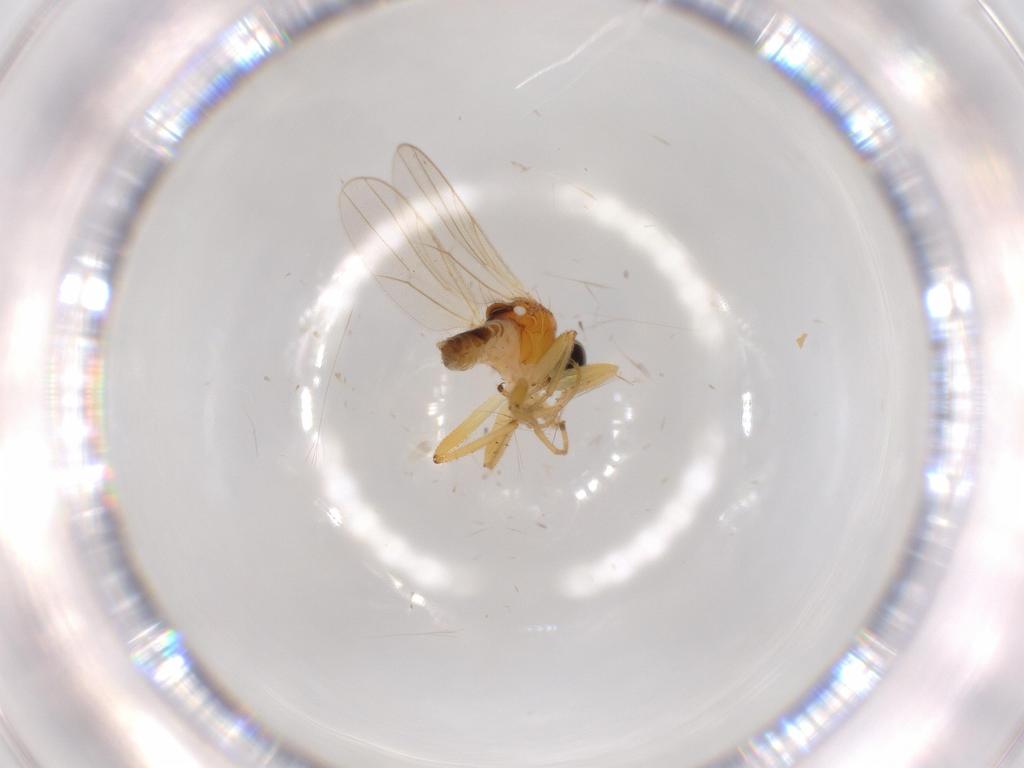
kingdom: Animalia
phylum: Arthropoda
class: Insecta
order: Diptera
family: Hybotidae
